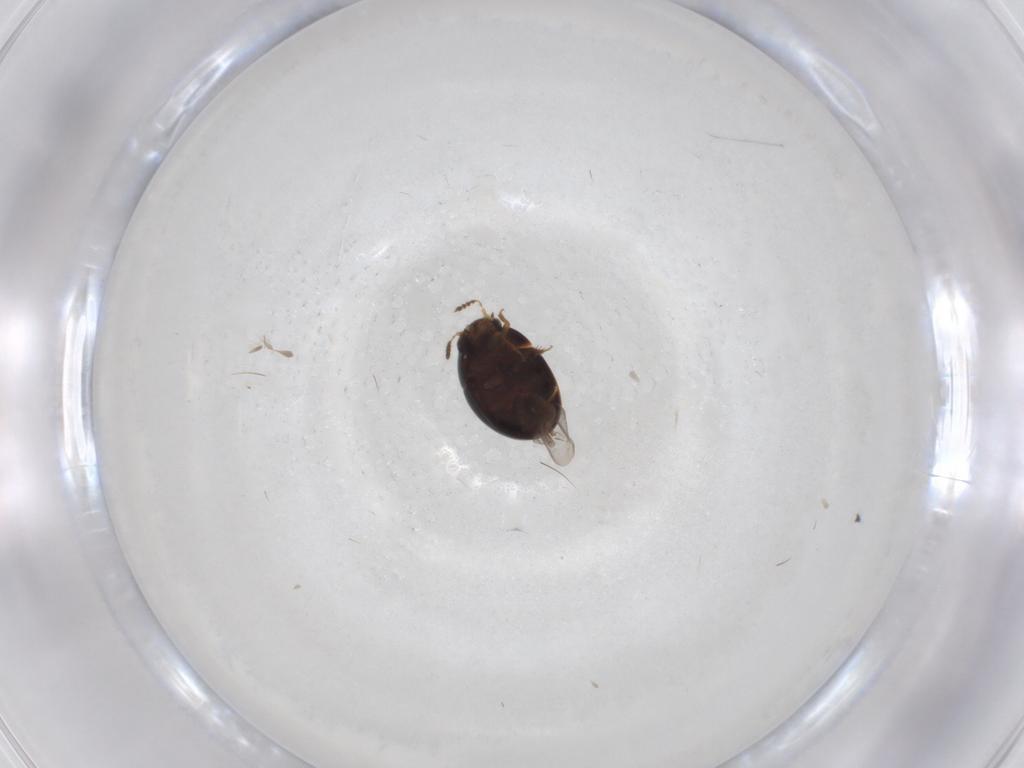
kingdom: Animalia
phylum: Arthropoda
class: Insecta
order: Coleoptera
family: Leiodidae
